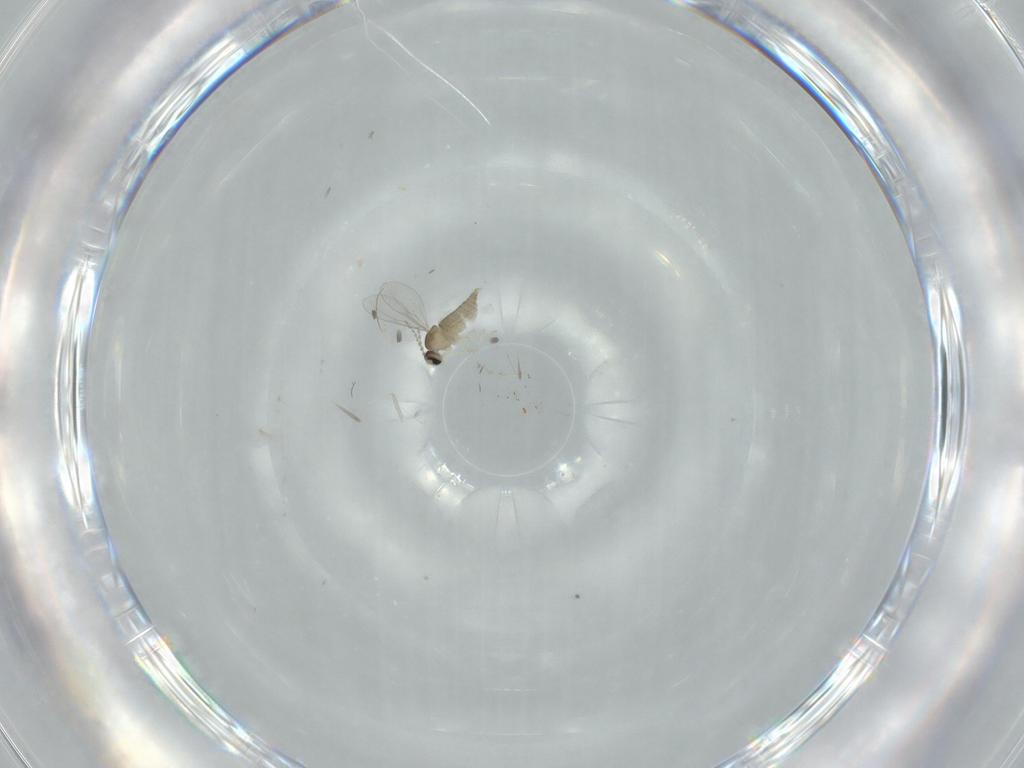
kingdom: Animalia
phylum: Arthropoda
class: Insecta
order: Diptera
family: Cecidomyiidae
